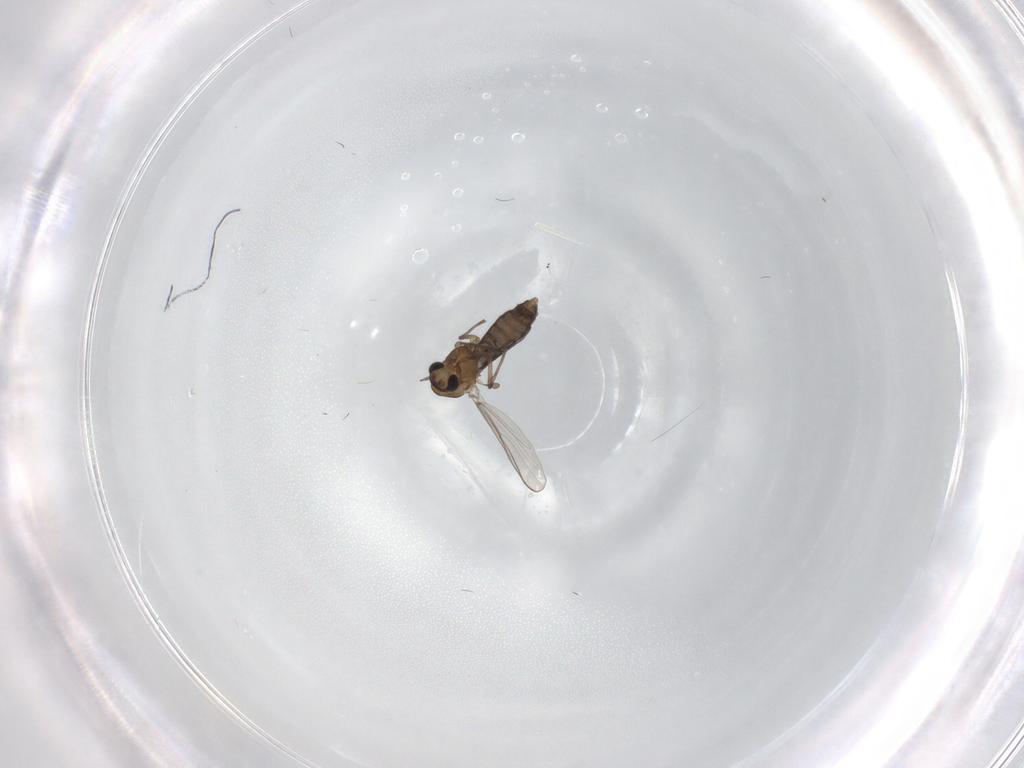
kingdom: Animalia
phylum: Arthropoda
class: Insecta
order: Diptera
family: Chironomidae
